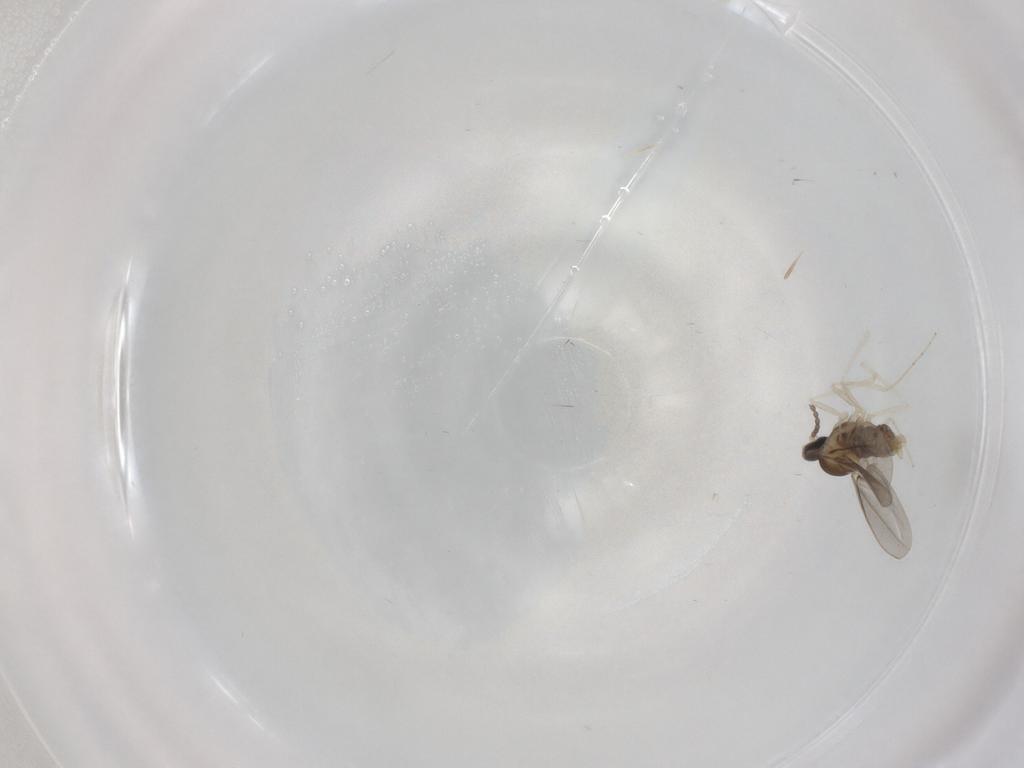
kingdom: Animalia
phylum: Arthropoda
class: Insecta
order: Diptera
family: Cecidomyiidae
